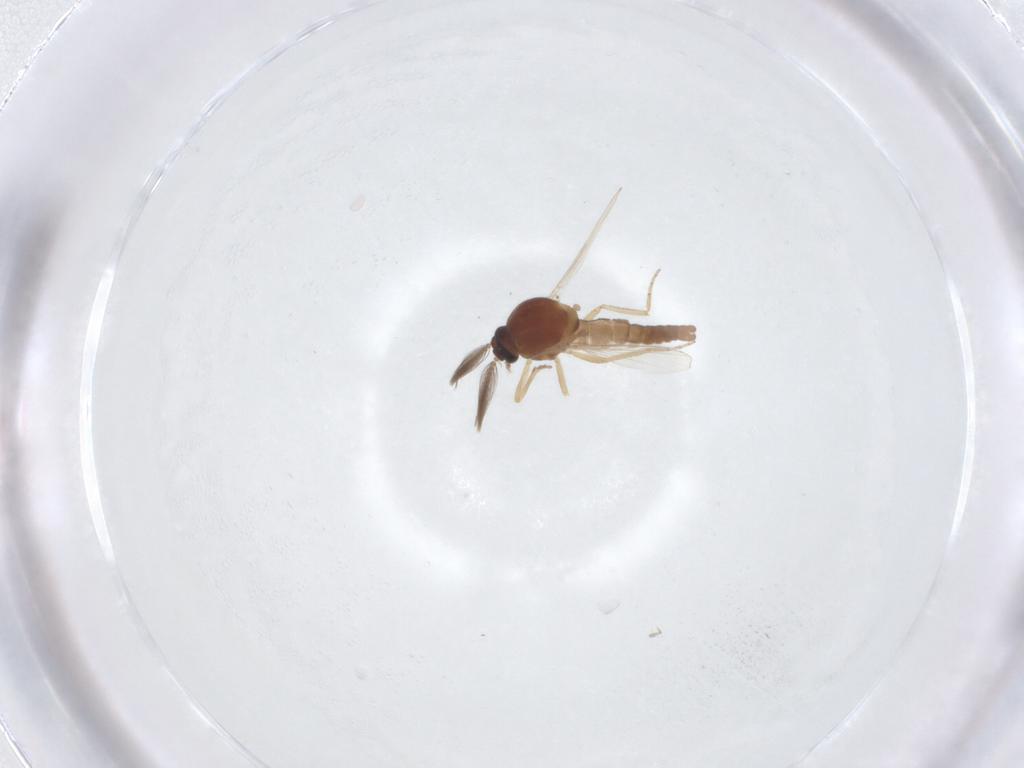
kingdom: Animalia
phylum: Arthropoda
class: Insecta
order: Diptera
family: Ceratopogonidae
